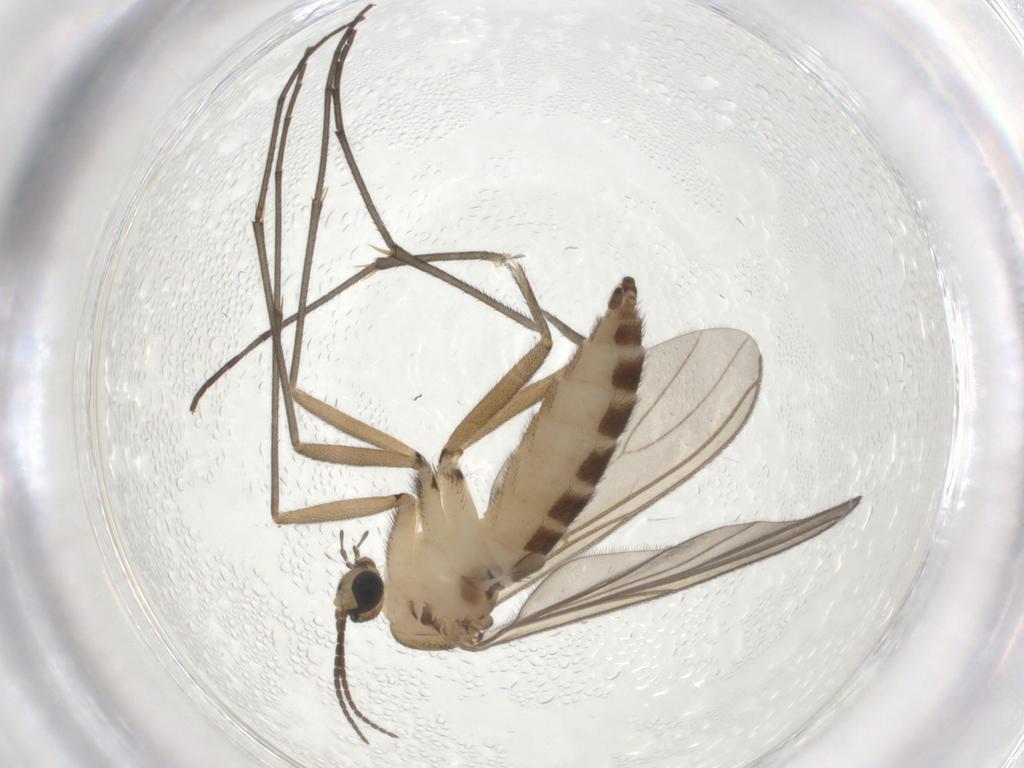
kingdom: Animalia
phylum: Arthropoda
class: Insecta
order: Diptera
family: Sciaridae
